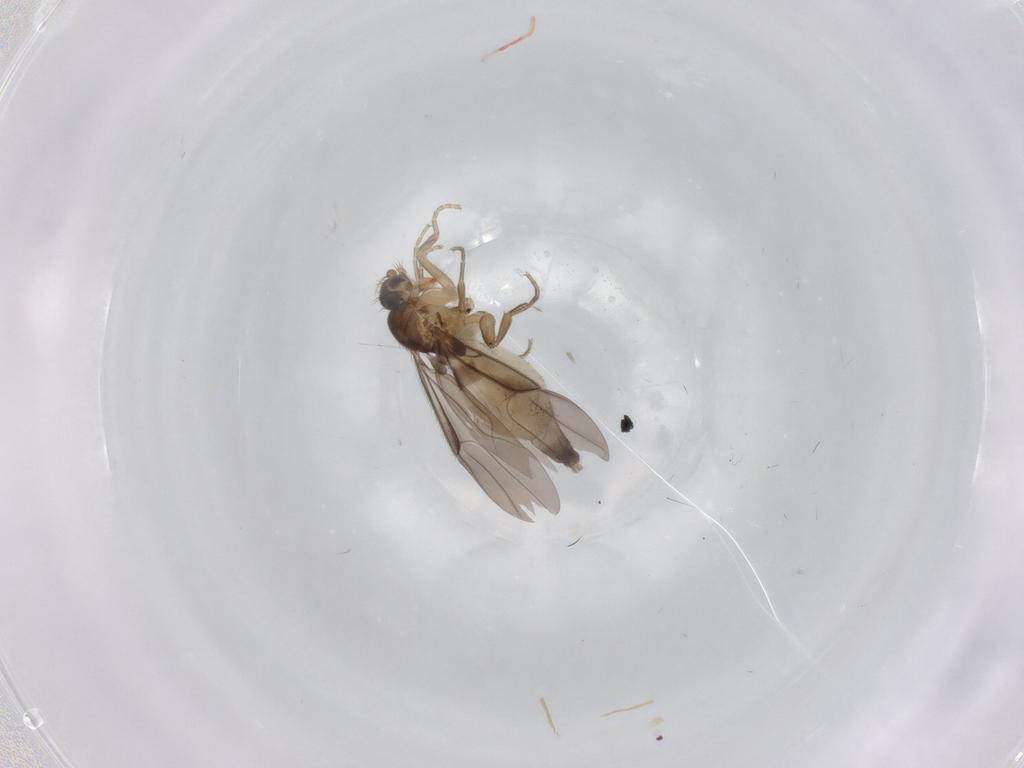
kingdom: Animalia
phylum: Arthropoda
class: Insecta
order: Diptera
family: Phoridae
